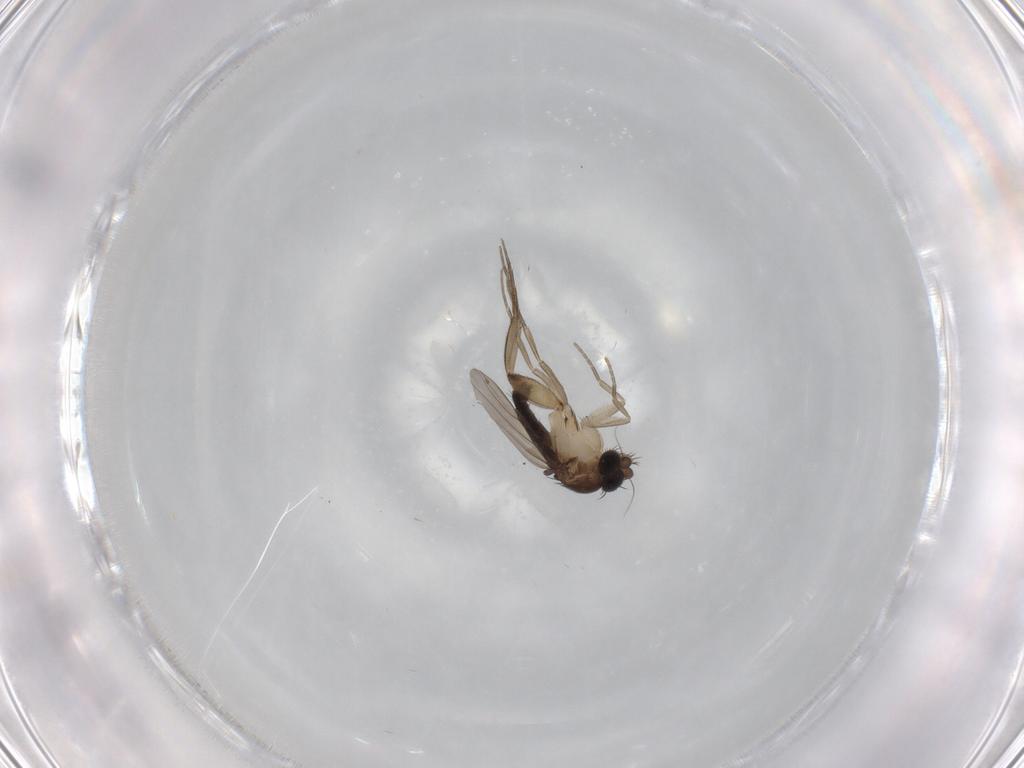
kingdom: Animalia
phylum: Arthropoda
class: Insecta
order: Diptera
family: Phoridae
